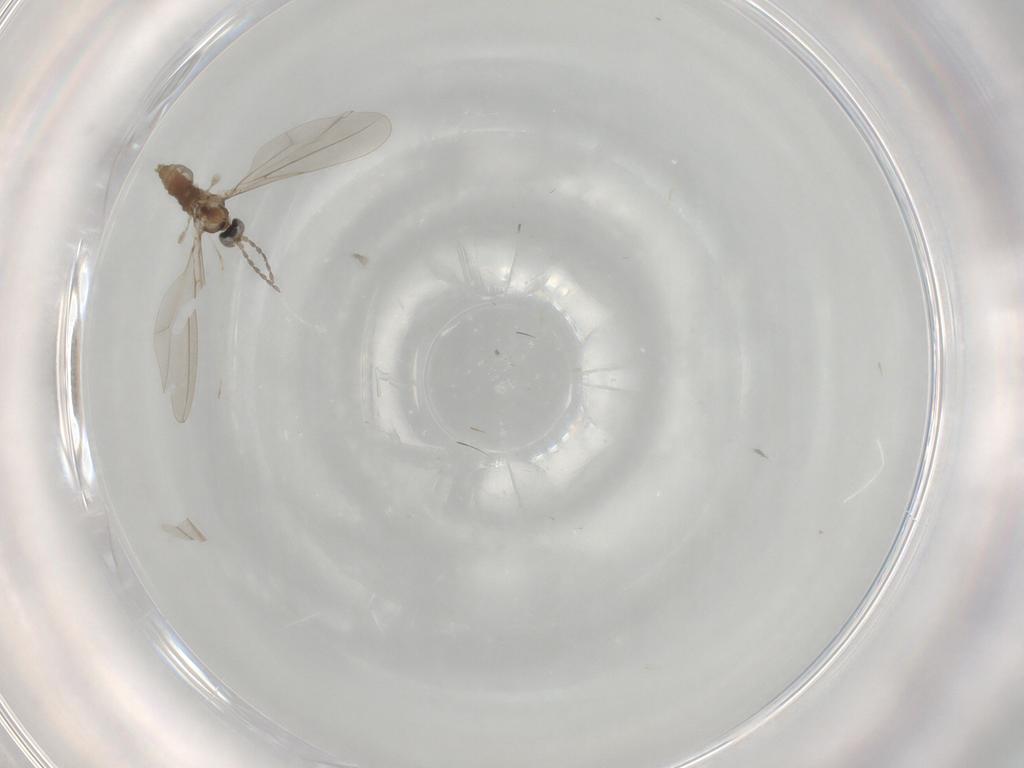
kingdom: Animalia
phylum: Arthropoda
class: Insecta
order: Diptera
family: Cecidomyiidae
